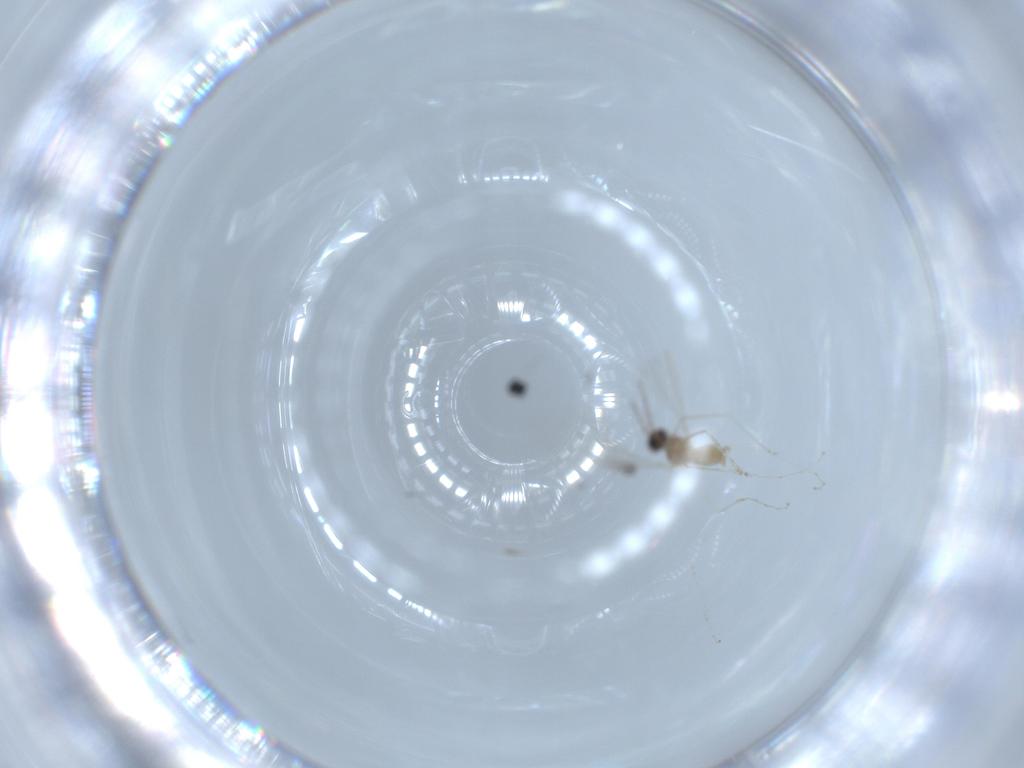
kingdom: Animalia
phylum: Arthropoda
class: Insecta
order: Diptera
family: Cecidomyiidae
